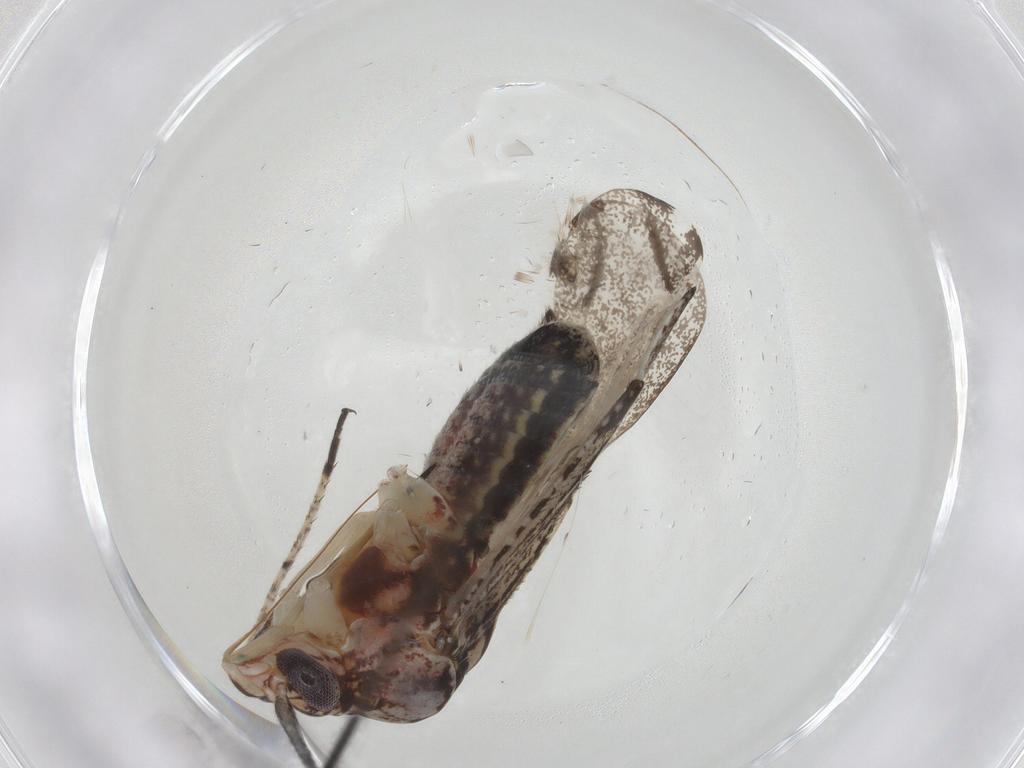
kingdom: Animalia
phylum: Arthropoda
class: Insecta
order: Hemiptera
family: Miridae
